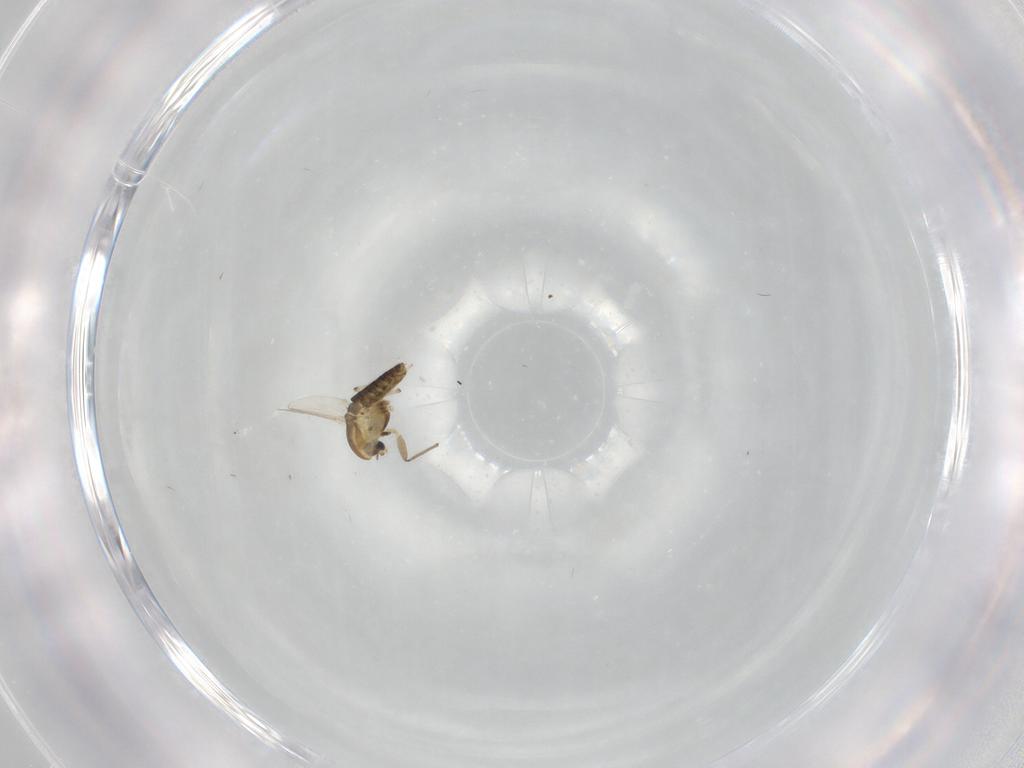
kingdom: Animalia
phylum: Arthropoda
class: Insecta
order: Diptera
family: Chironomidae
